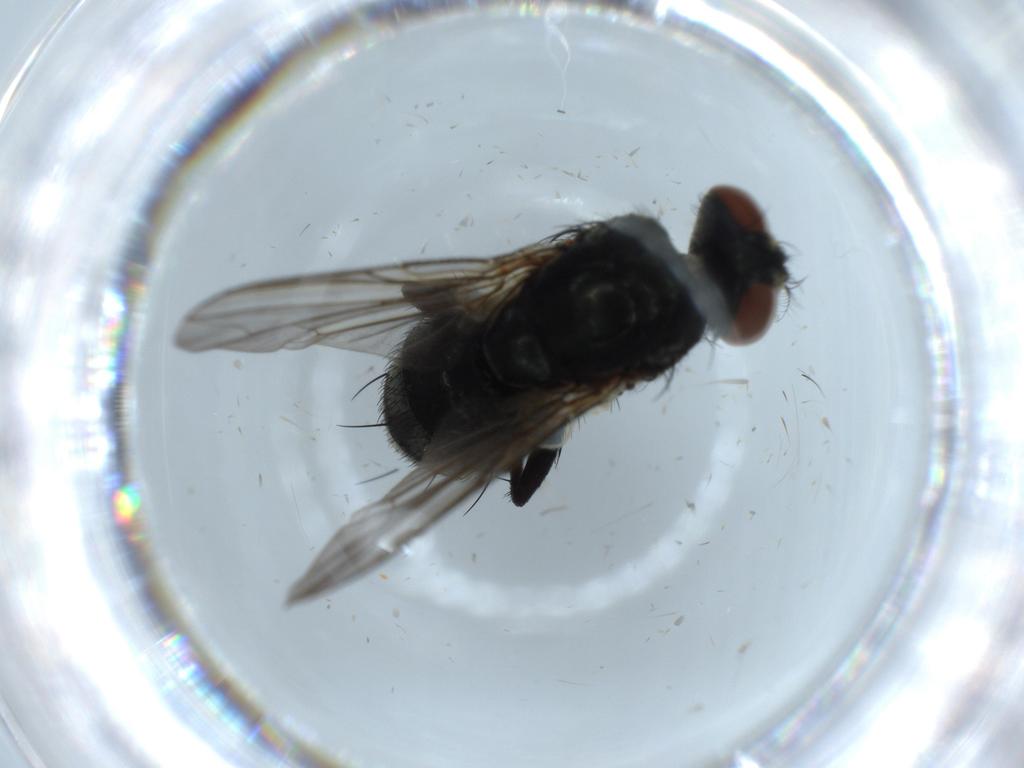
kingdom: Animalia
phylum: Arthropoda
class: Insecta
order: Diptera
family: Sarcophagidae
